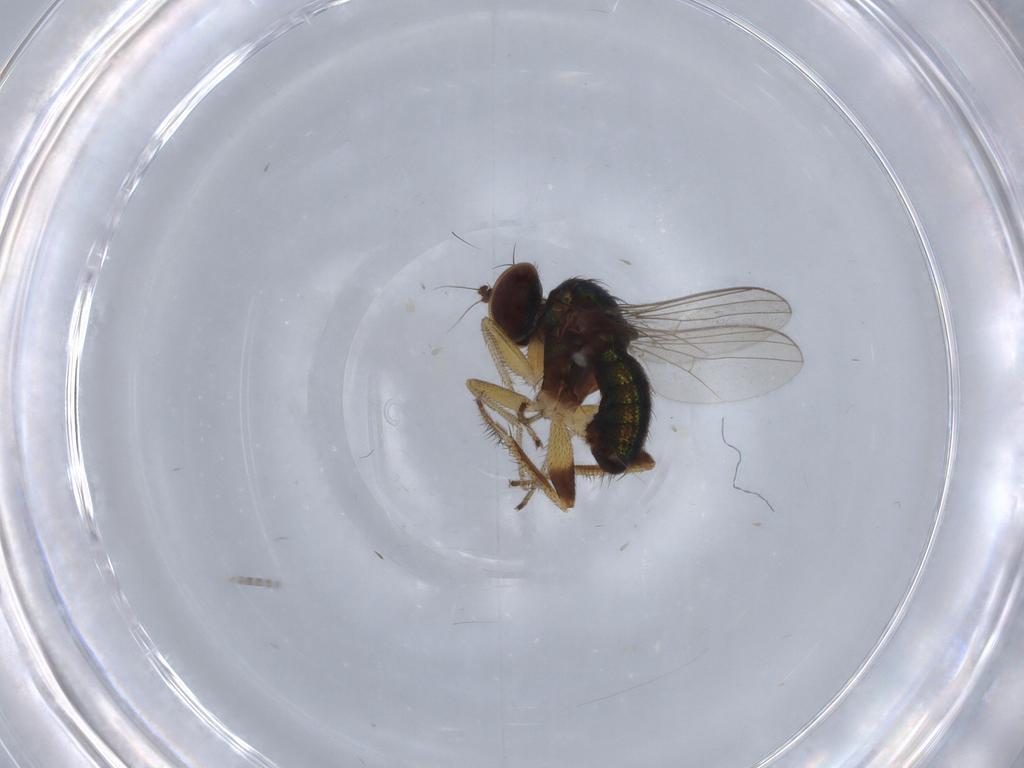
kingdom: Animalia
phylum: Arthropoda
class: Insecta
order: Diptera
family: Dolichopodidae
